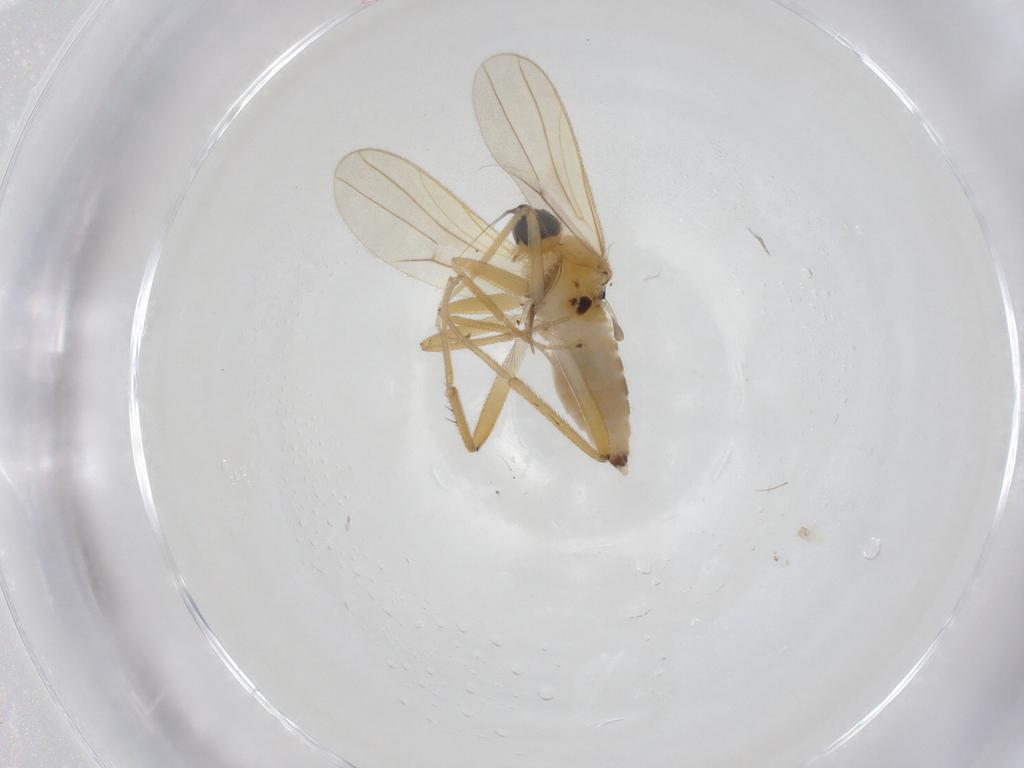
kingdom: Animalia
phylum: Arthropoda
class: Insecta
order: Diptera
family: Hybotidae
